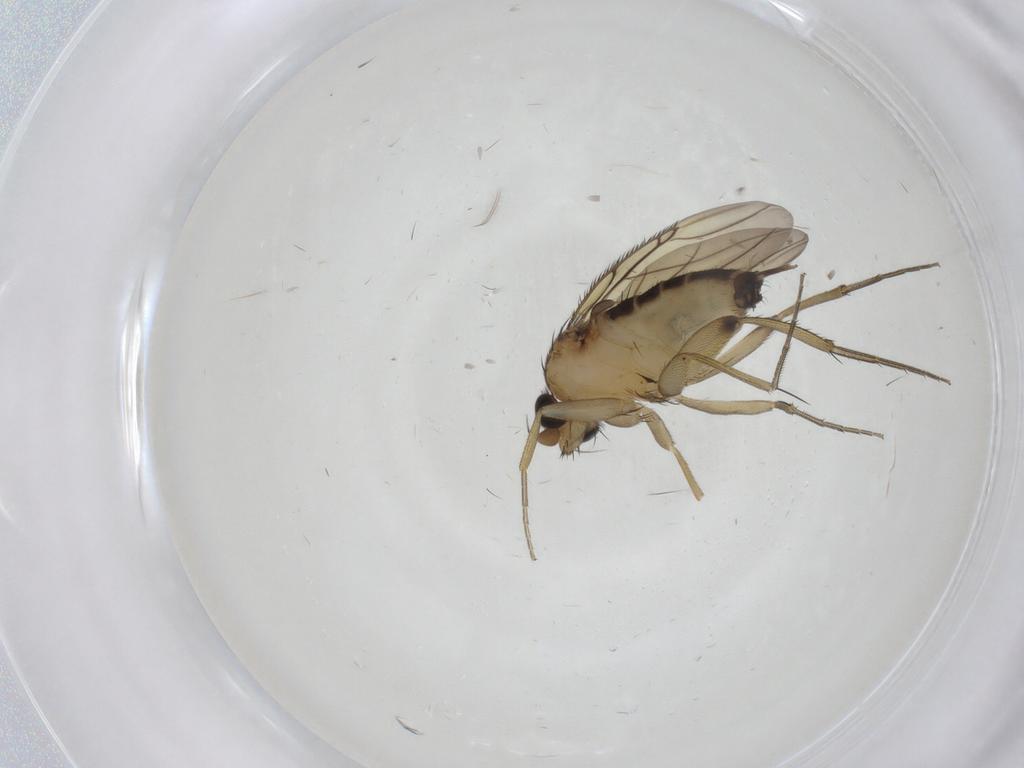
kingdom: Animalia
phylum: Arthropoda
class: Insecta
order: Diptera
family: Phoridae
